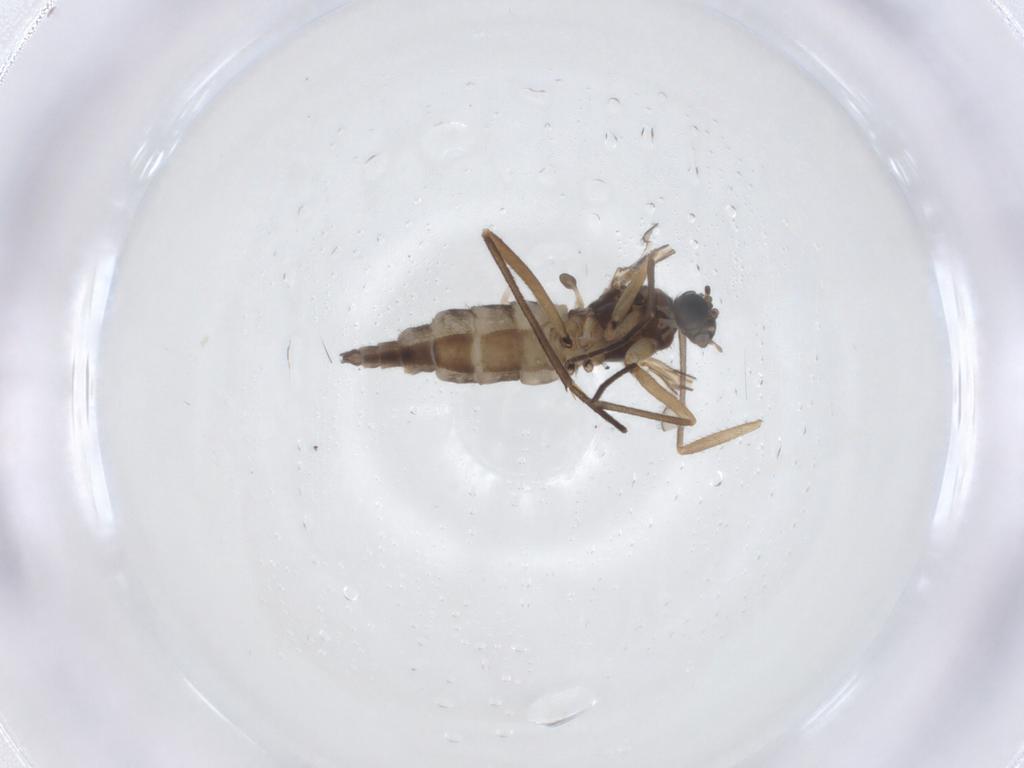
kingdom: Animalia
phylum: Arthropoda
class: Insecta
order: Diptera
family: Sciaridae
